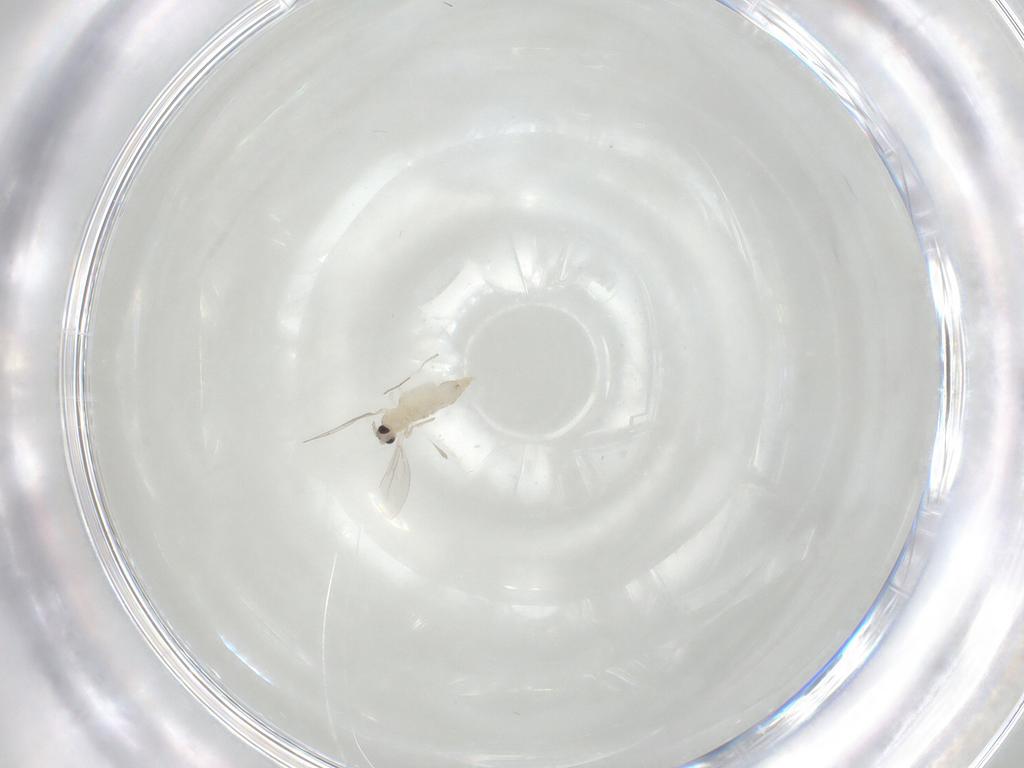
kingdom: Animalia
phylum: Arthropoda
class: Insecta
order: Diptera
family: Cecidomyiidae
